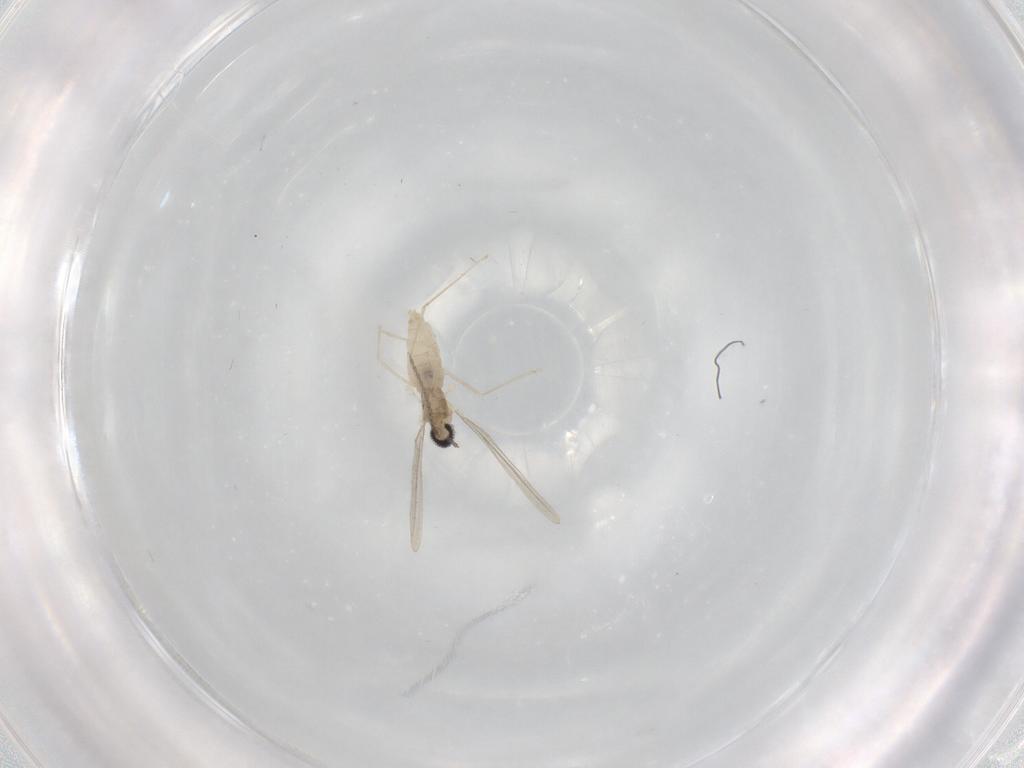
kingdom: Animalia
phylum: Arthropoda
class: Insecta
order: Diptera
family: Cecidomyiidae
